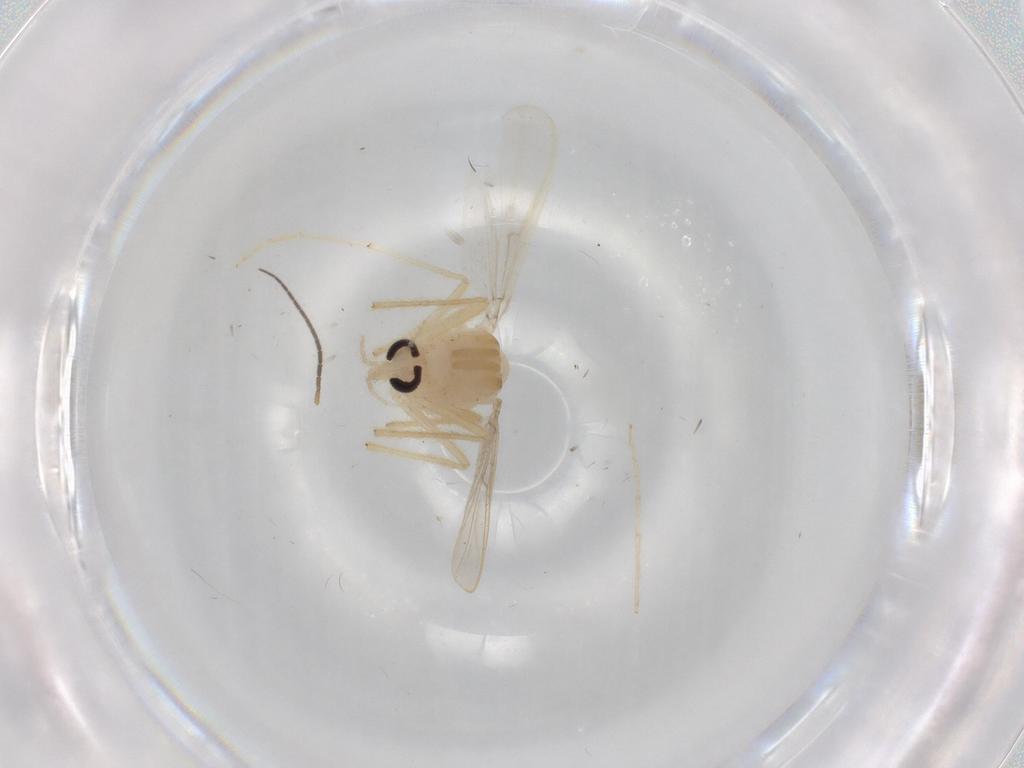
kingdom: Animalia
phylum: Arthropoda
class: Insecta
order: Diptera
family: Chironomidae
